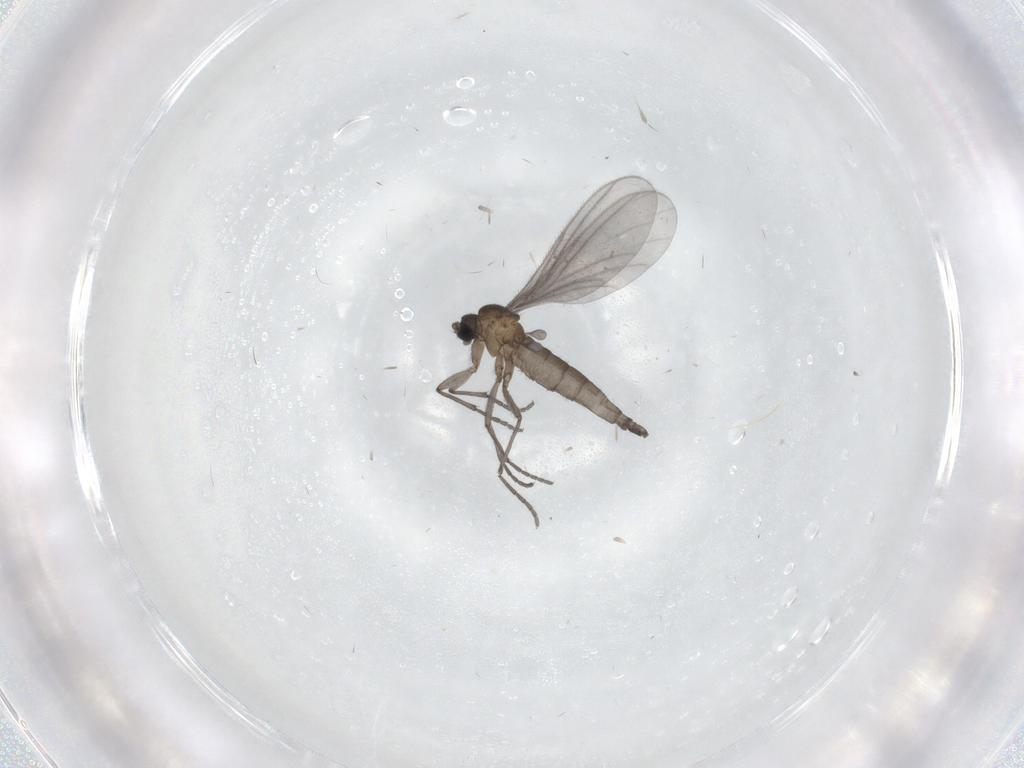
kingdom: Animalia
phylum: Arthropoda
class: Insecta
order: Diptera
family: Sciaridae
